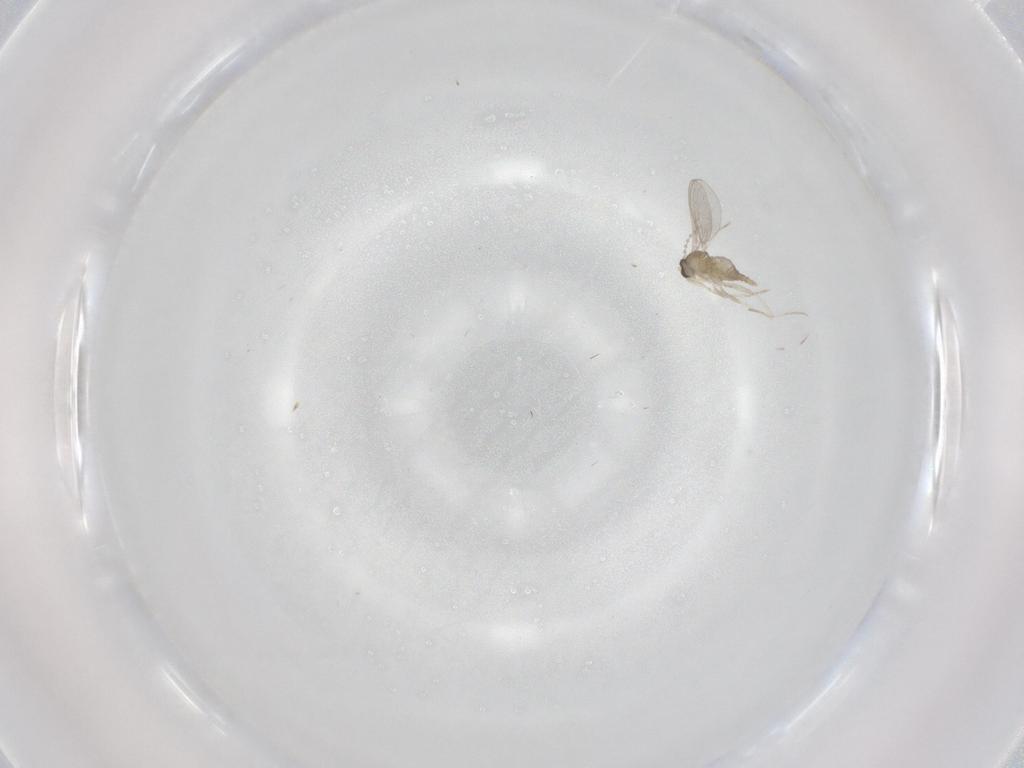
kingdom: Animalia
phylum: Arthropoda
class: Insecta
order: Diptera
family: Cecidomyiidae
